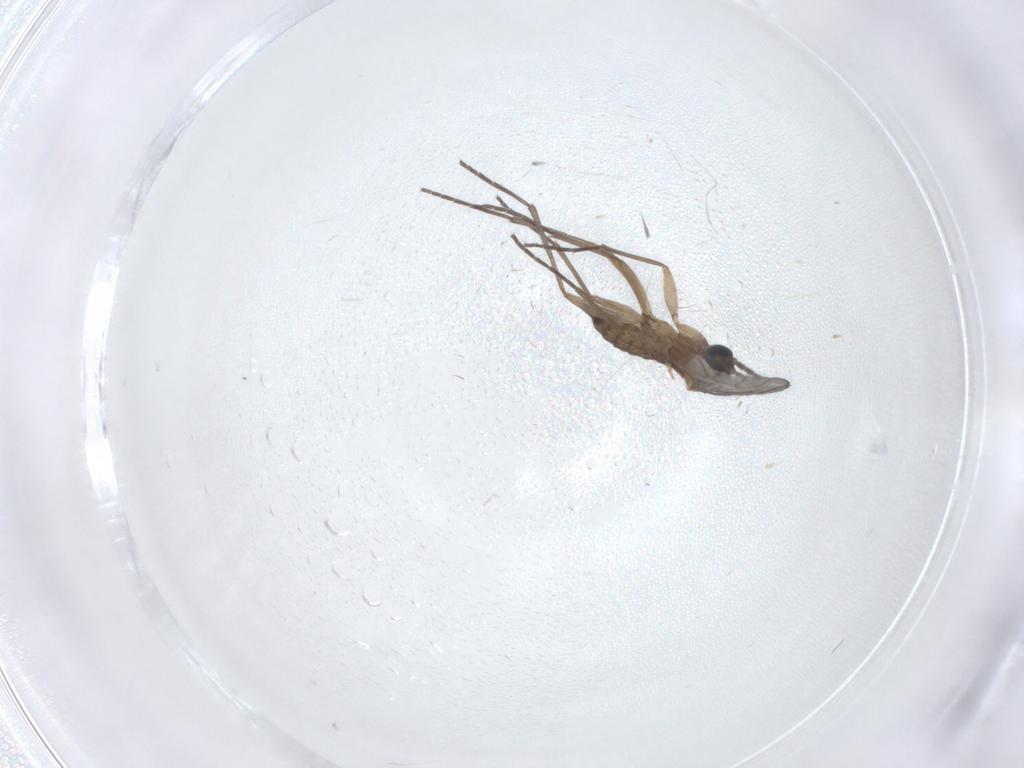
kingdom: Animalia
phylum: Arthropoda
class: Insecta
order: Diptera
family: Sciaridae
